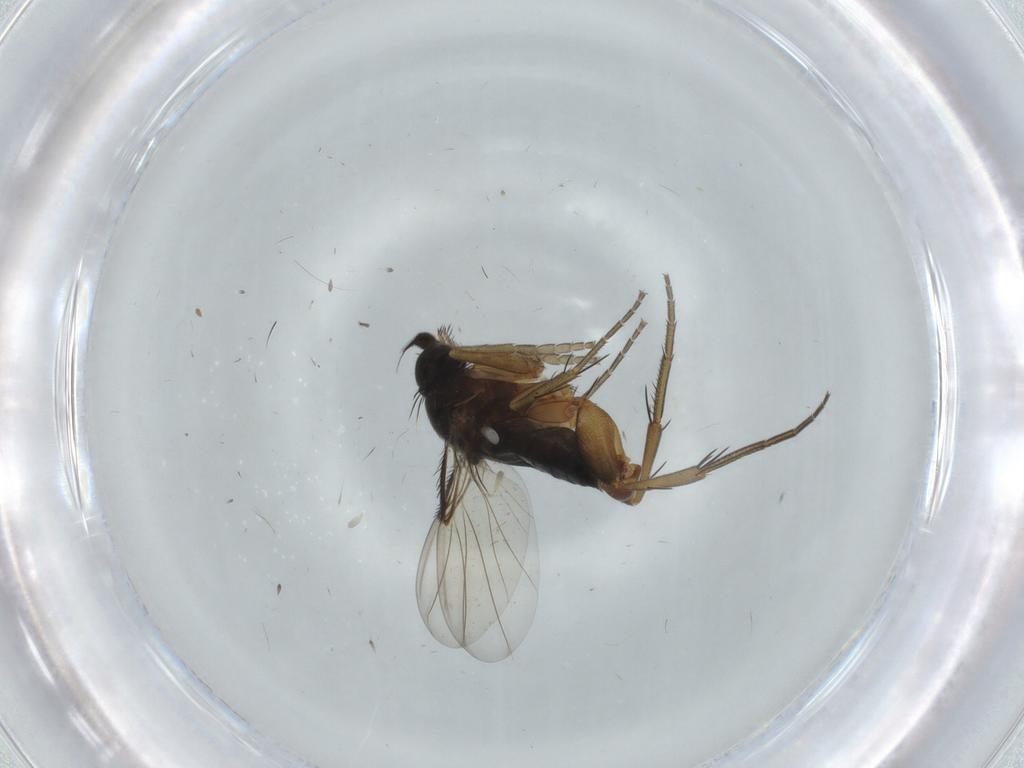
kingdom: Animalia
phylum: Arthropoda
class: Insecta
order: Diptera
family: Phoridae
